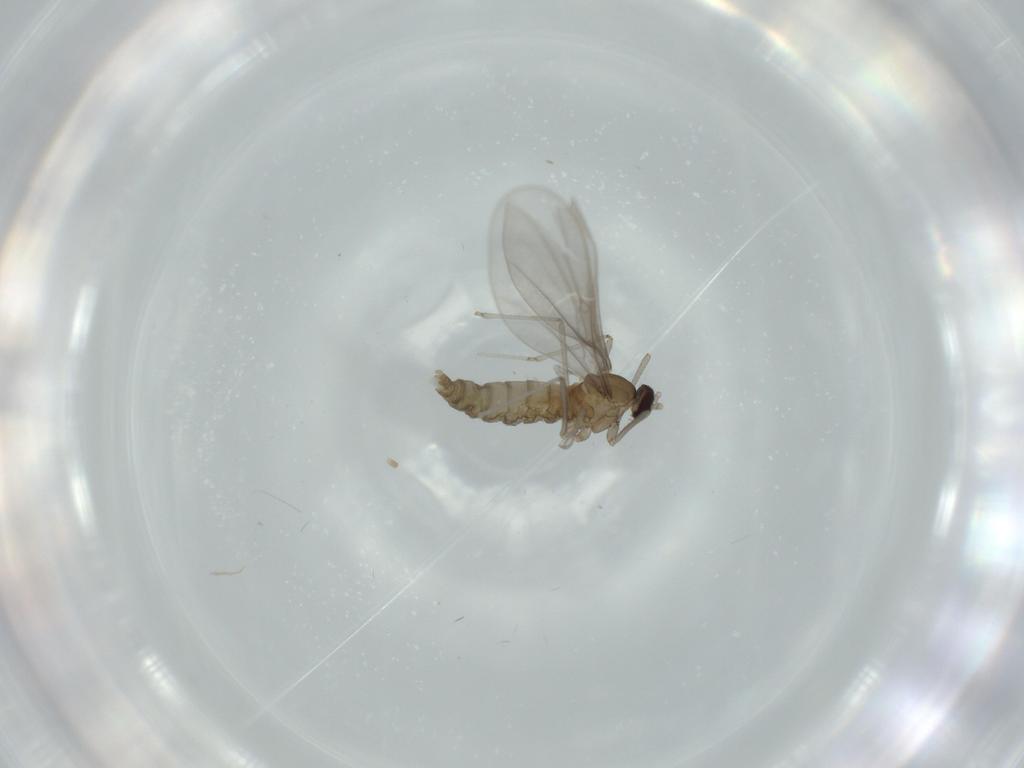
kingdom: Animalia
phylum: Arthropoda
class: Insecta
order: Diptera
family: Cecidomyiidae
